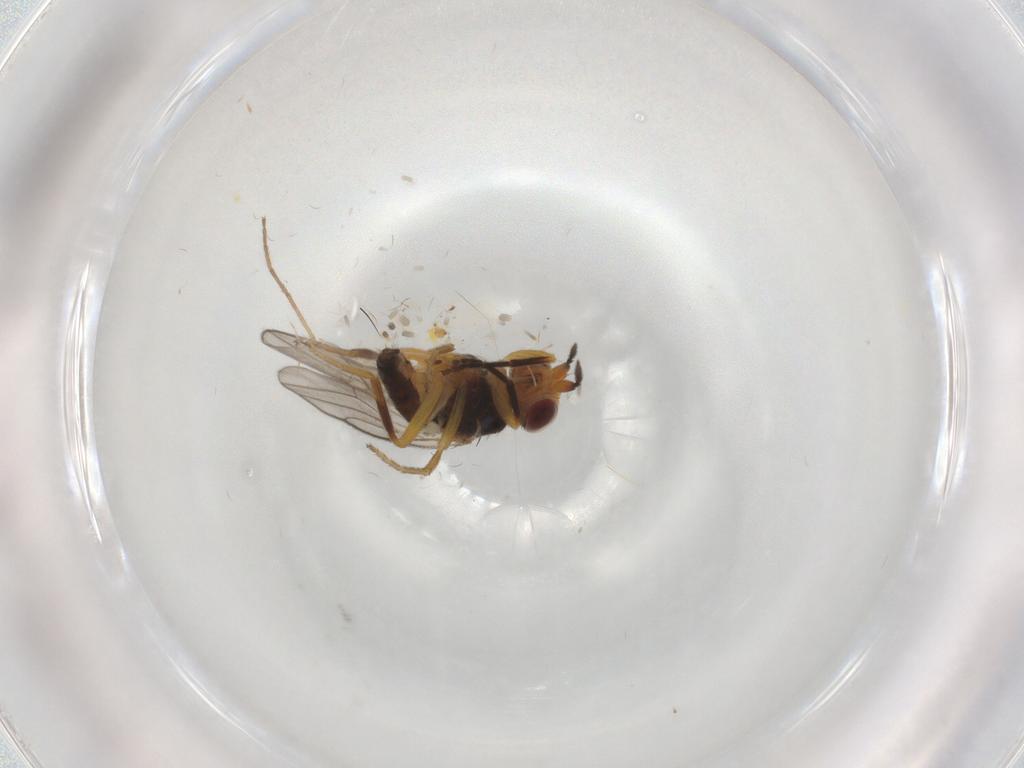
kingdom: Animalia
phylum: Arthropoda
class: Insecta
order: Diptera
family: Chloropidae
